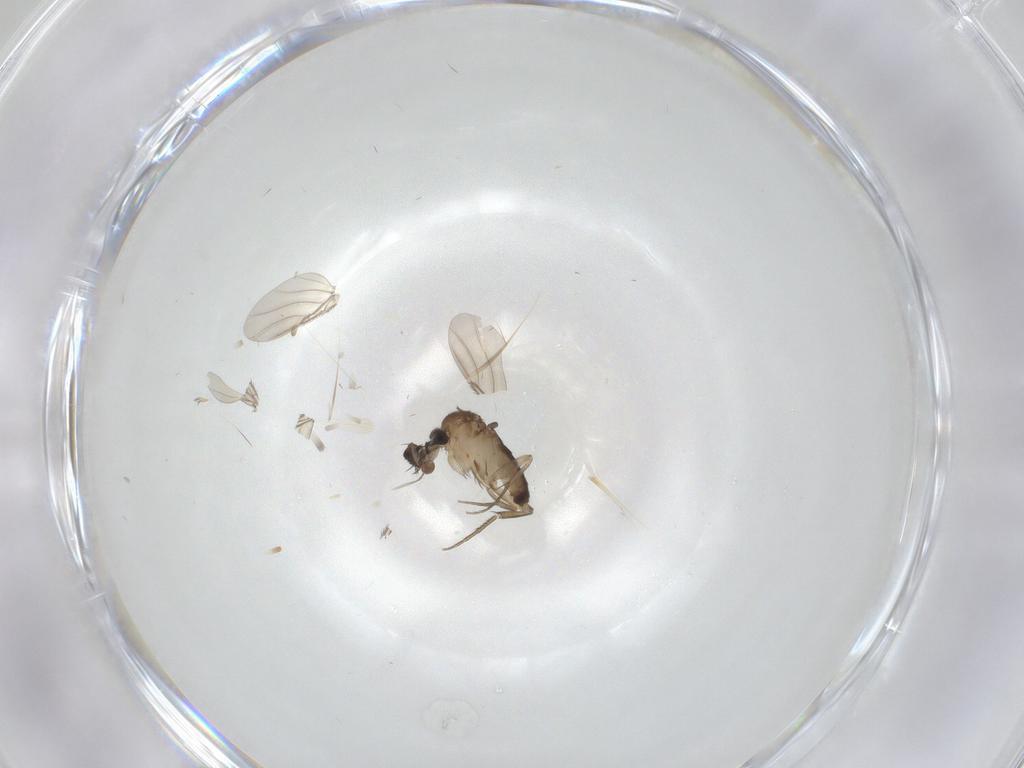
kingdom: Animalia
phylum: Arthropoda
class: Insecta
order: Diptera
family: Phoridae
